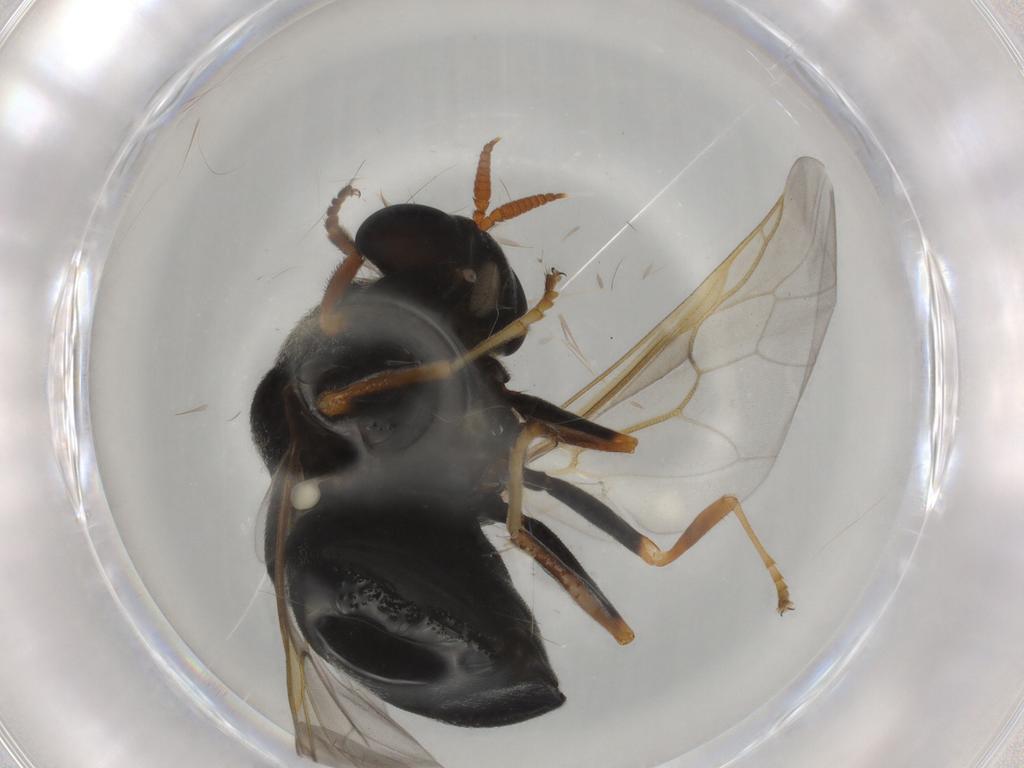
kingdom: Animalia
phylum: Arthropoda
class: Insecta
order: Diptera
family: Stratiomyidae
